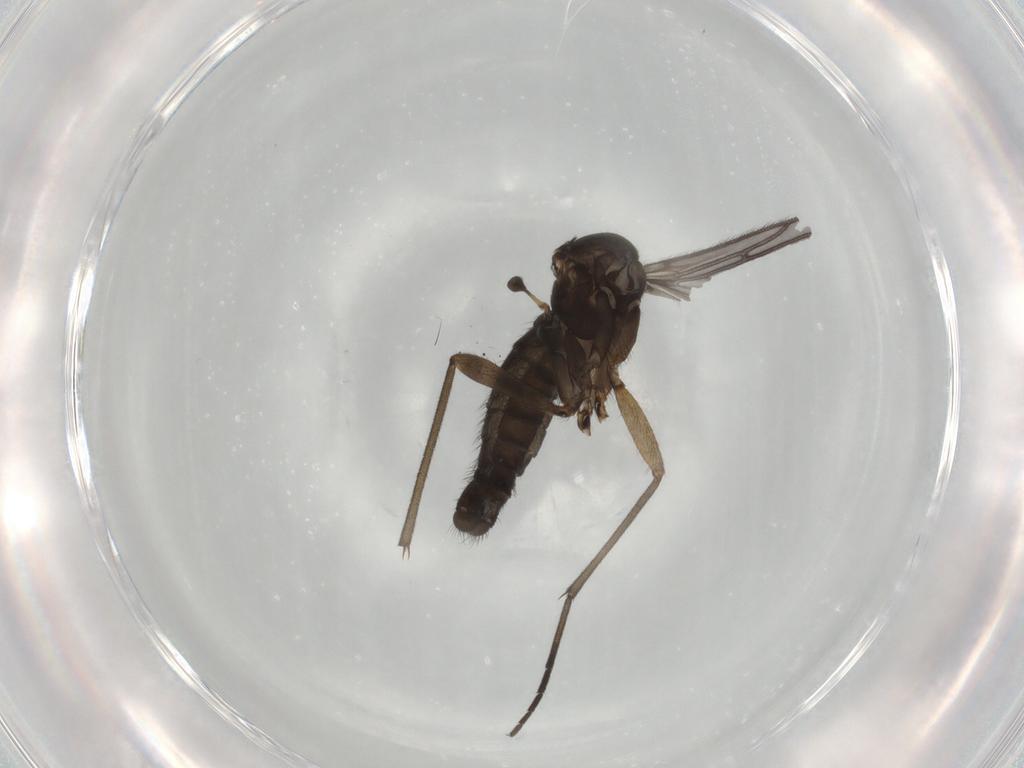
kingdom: Animalia
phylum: Arthropoda
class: Insecta
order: Diptera
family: Sciaridae
